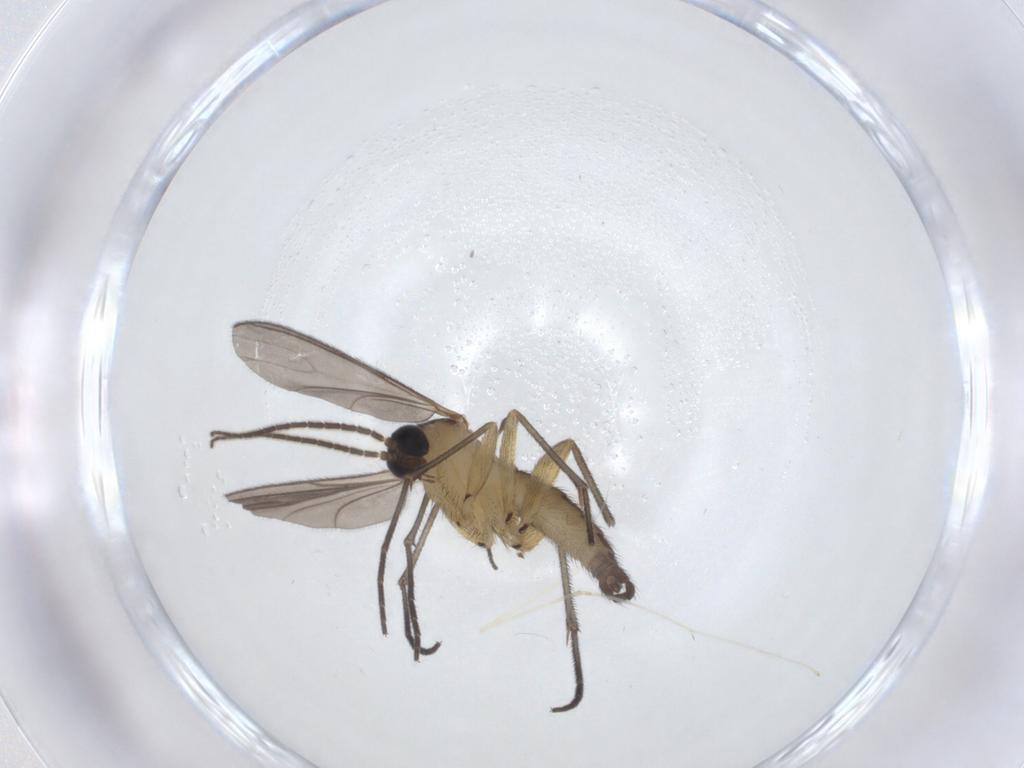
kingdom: Animalia
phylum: Arthropoda
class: Insecta
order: Diptera
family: Sciaridae
